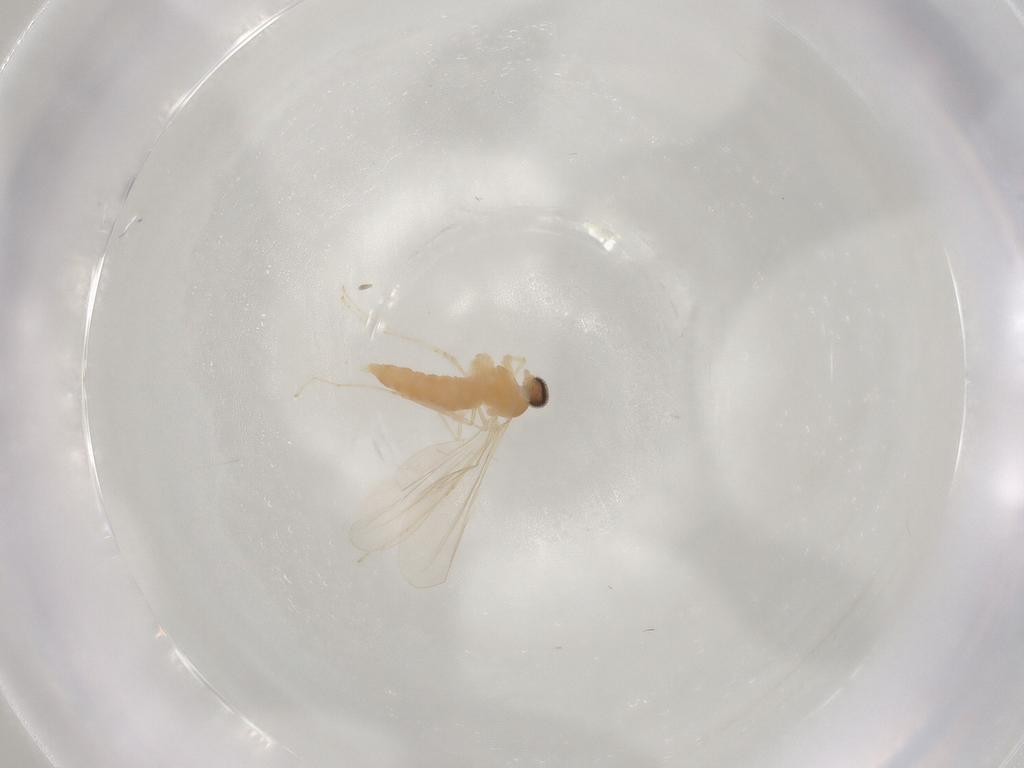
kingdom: Animalia
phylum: Arthropoda
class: Insecta
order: Diptera
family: Cecidomyiidae
